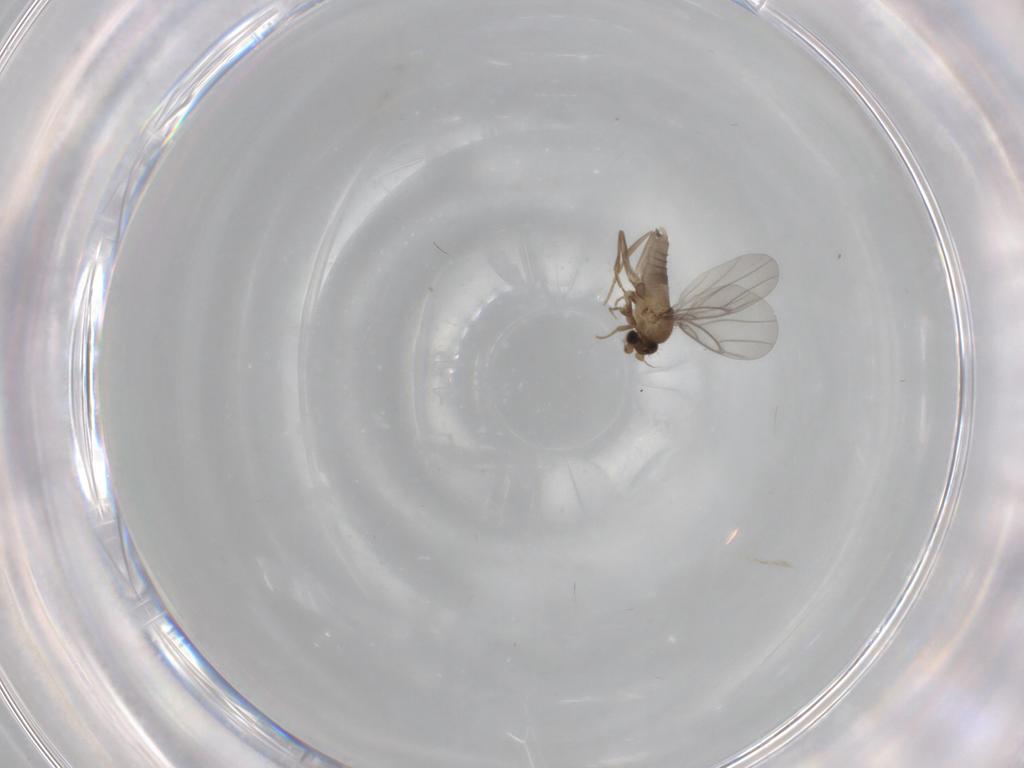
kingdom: Animalia
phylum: Arthropoda
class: Insecta
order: Diptera
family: Psychodidae
